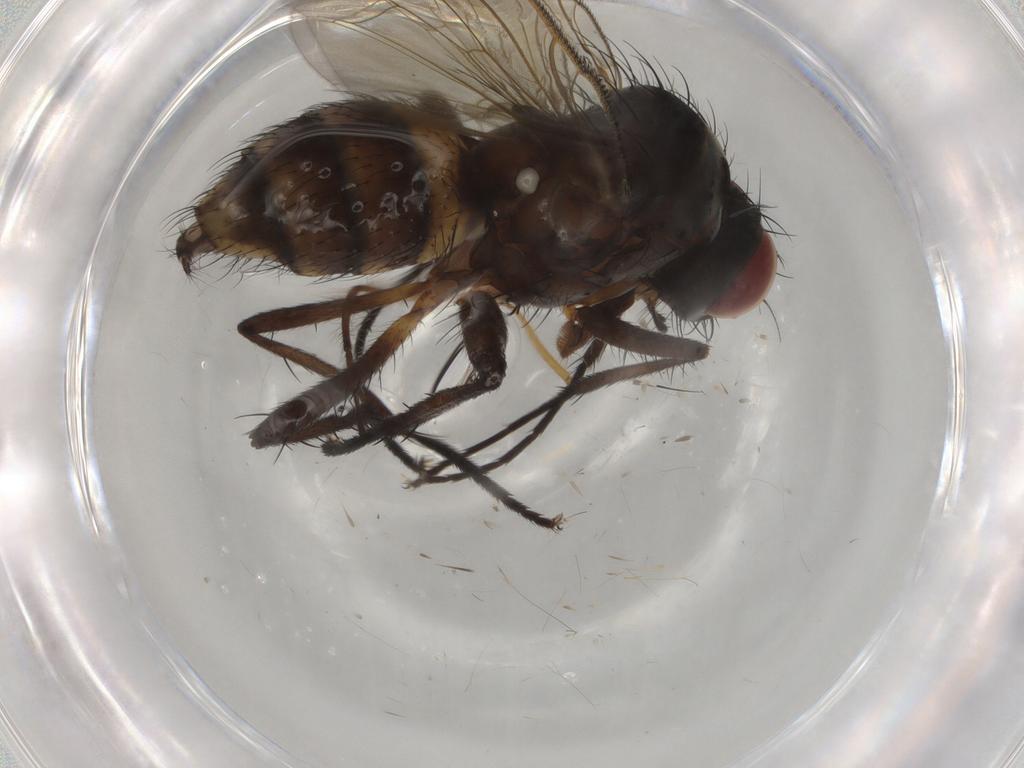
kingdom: Animalia
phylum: Arthropoda
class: Insecta
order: Diptera
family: Anthomyiidae
